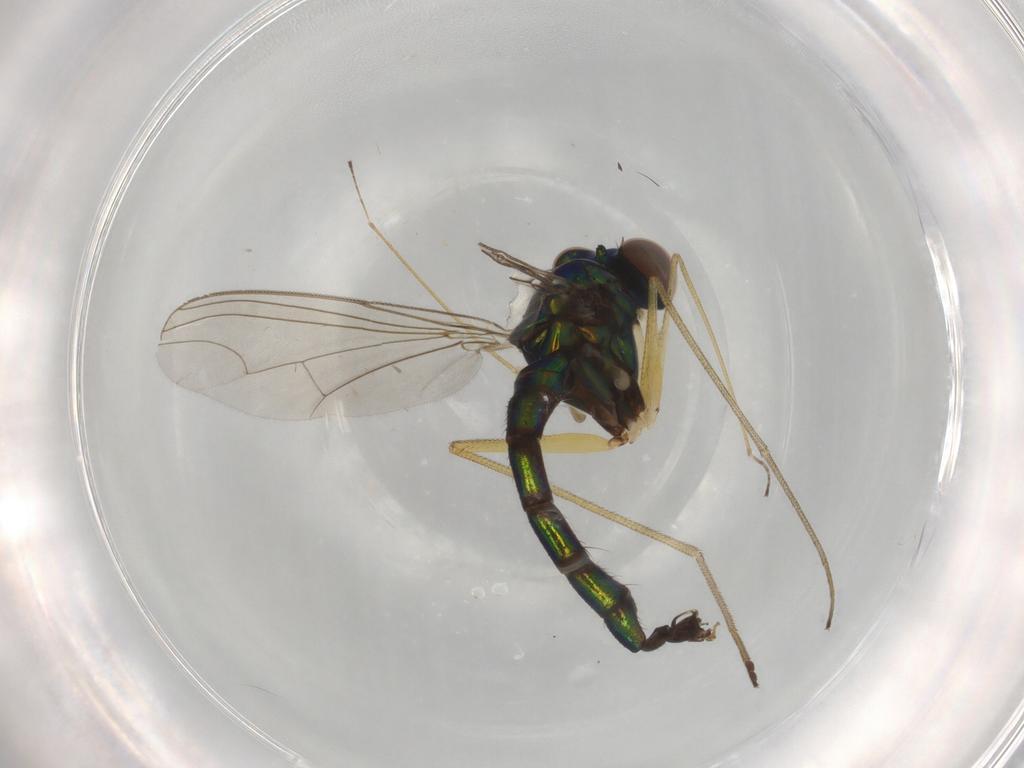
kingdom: Animalia
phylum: Arthropoda
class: Insecta
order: Diptera
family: Dolichopodidae
